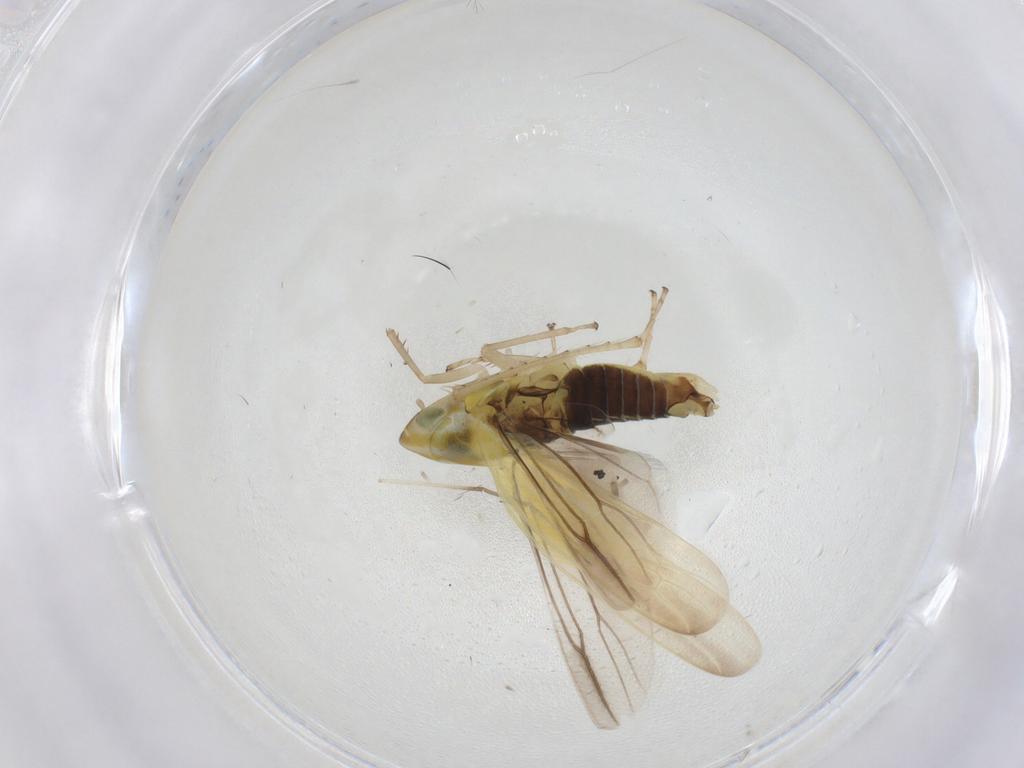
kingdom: Animalia
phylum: Arthropoda
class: Insecta
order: Hemiptera
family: Cicadellidae
